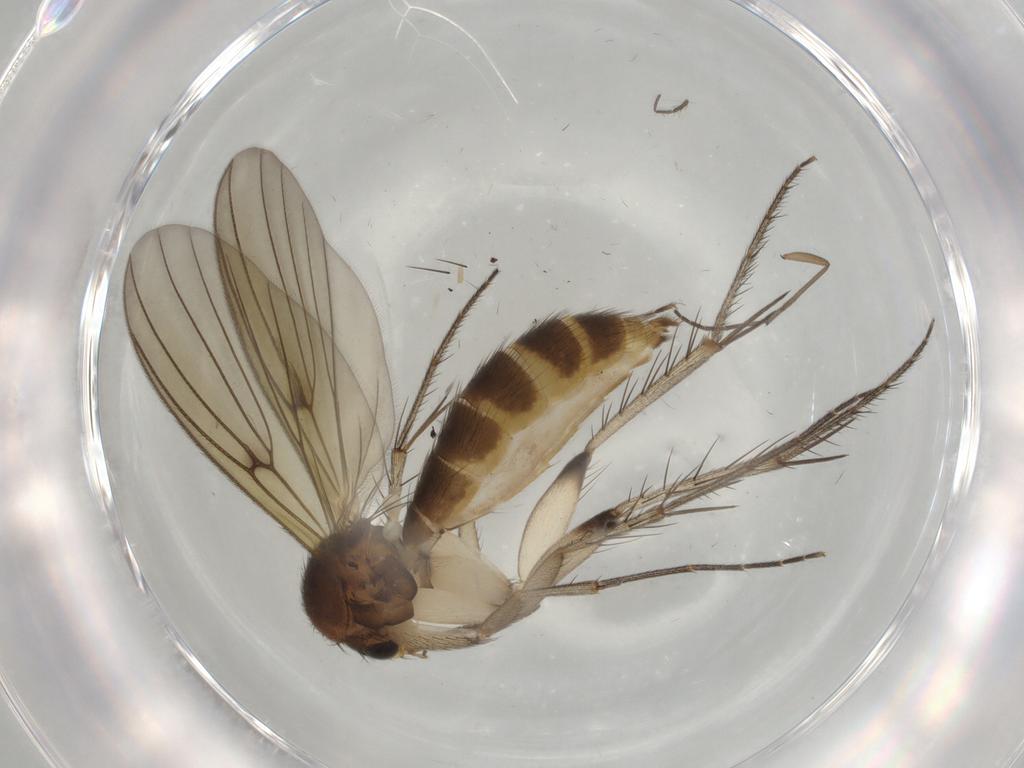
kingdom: Animalia
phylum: Arthropoda
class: Insecta
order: Diptera
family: Mycetophilidae
